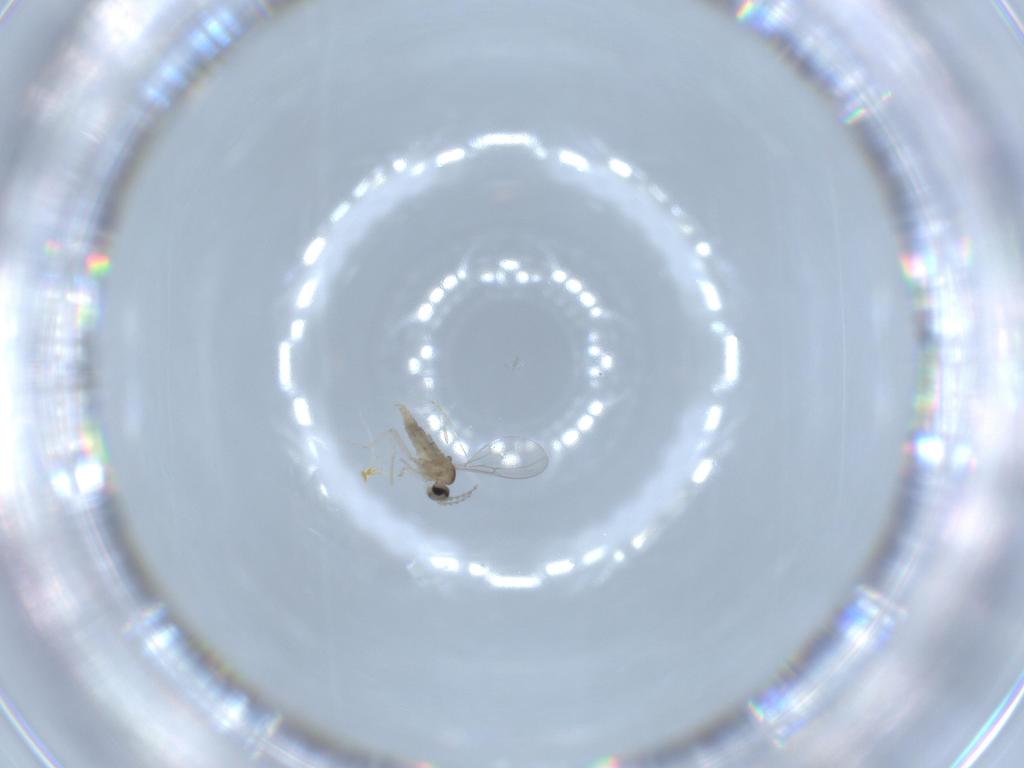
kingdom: Animalia
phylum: Arthropoda
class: Insecta
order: Diptera
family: Cecidomyiidae
